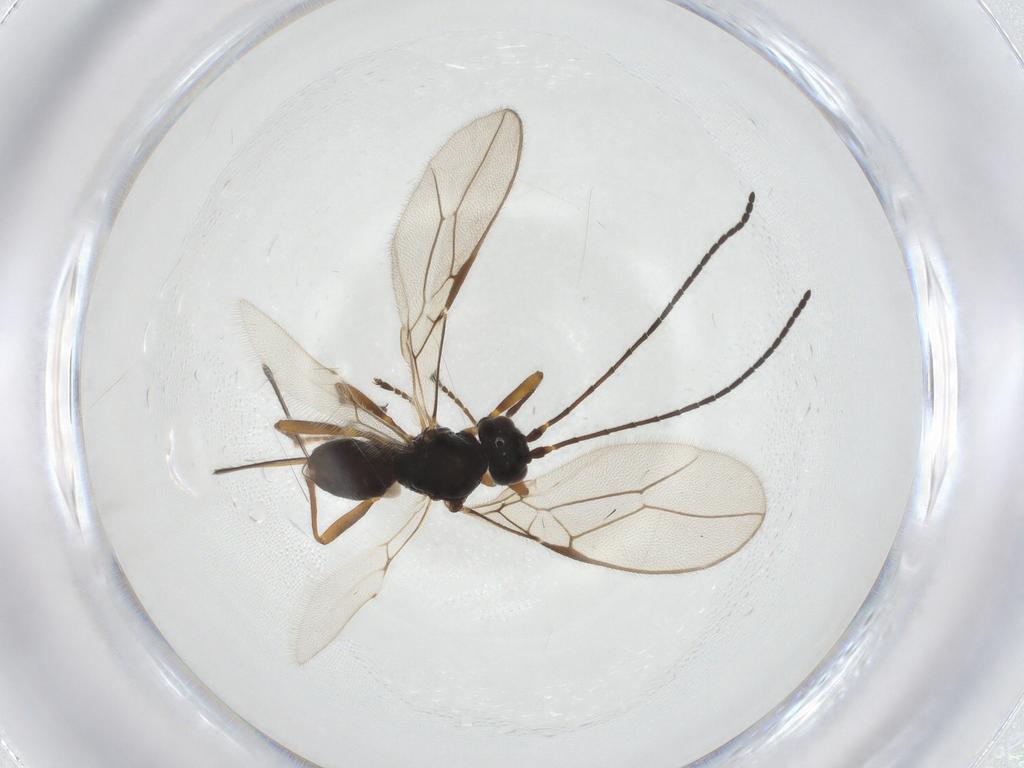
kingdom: Animalia
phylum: Arthropoda
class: Insecta
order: Hymenoptera
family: Braconidae
